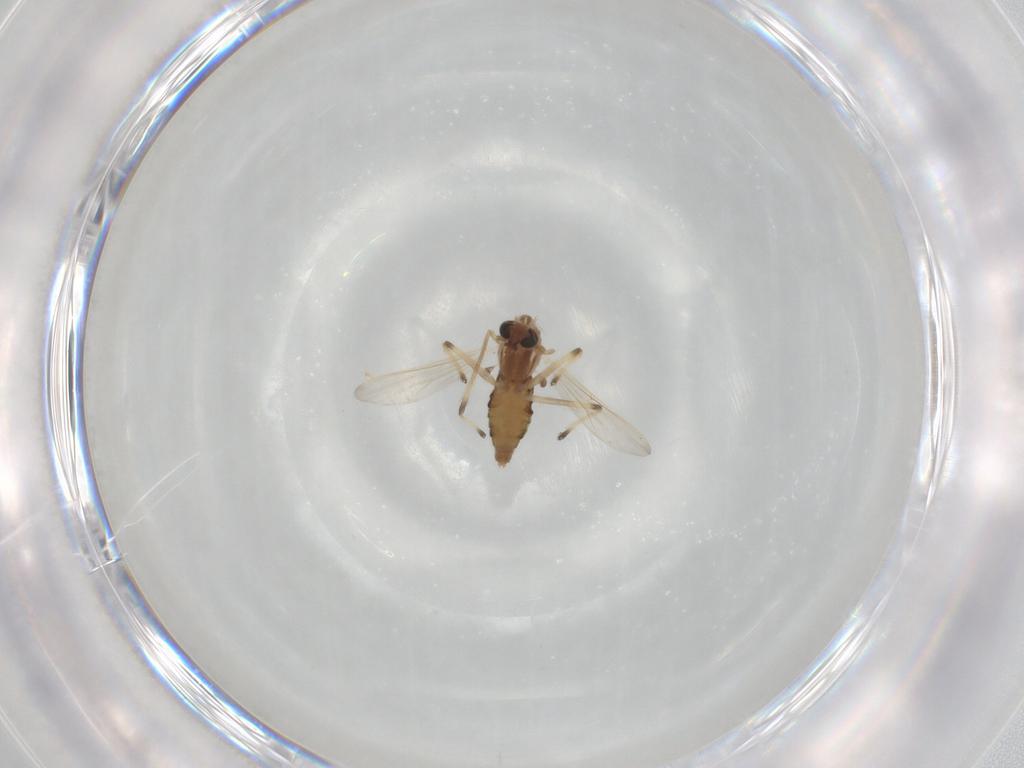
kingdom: Animalia
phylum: Arthropoda
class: Insecta
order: Diptera
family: Chironomidae
